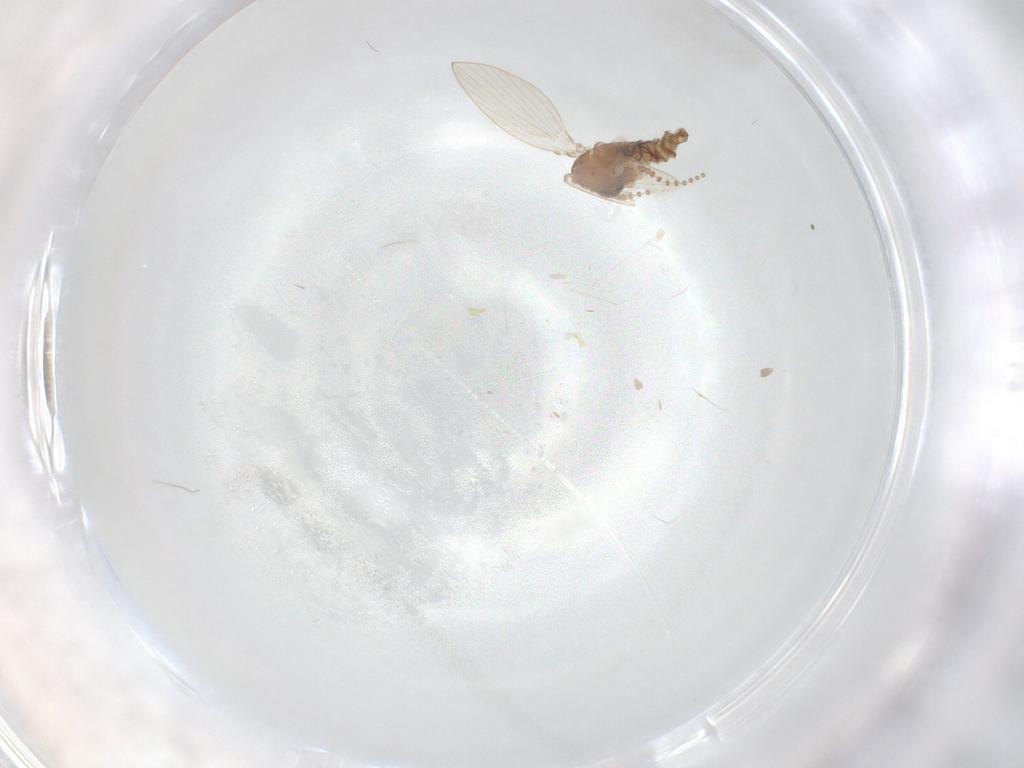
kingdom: Animalia
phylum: Arthropoda
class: Insecta
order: Diptera
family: Psychodidae
